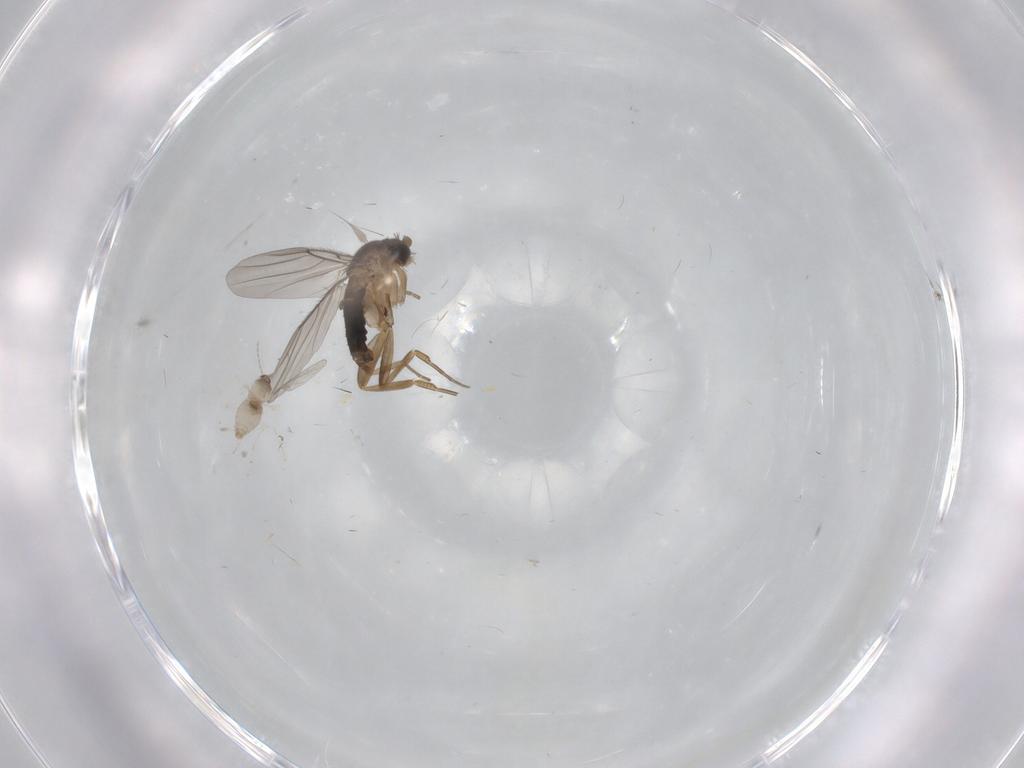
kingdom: Animalia
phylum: Arthropoda
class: Insecta
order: Diptera
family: Cecidomyiidae
